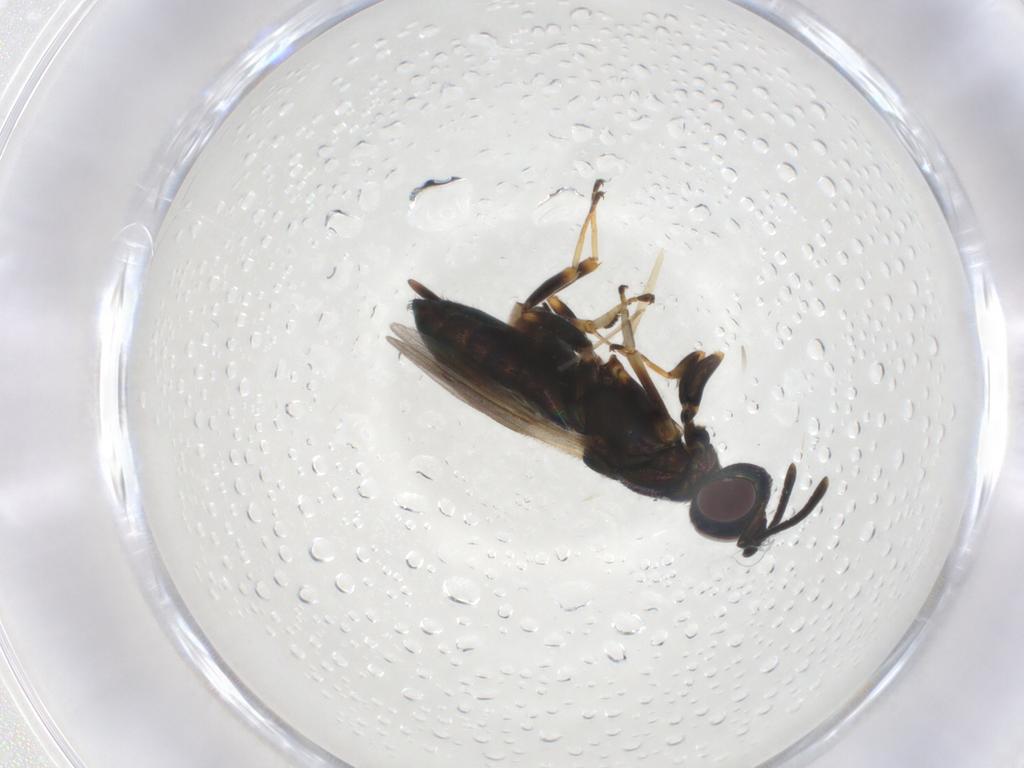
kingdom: Animalia
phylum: Arthropoda
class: Insecta
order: Hymenoptera
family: Eupelmidae
